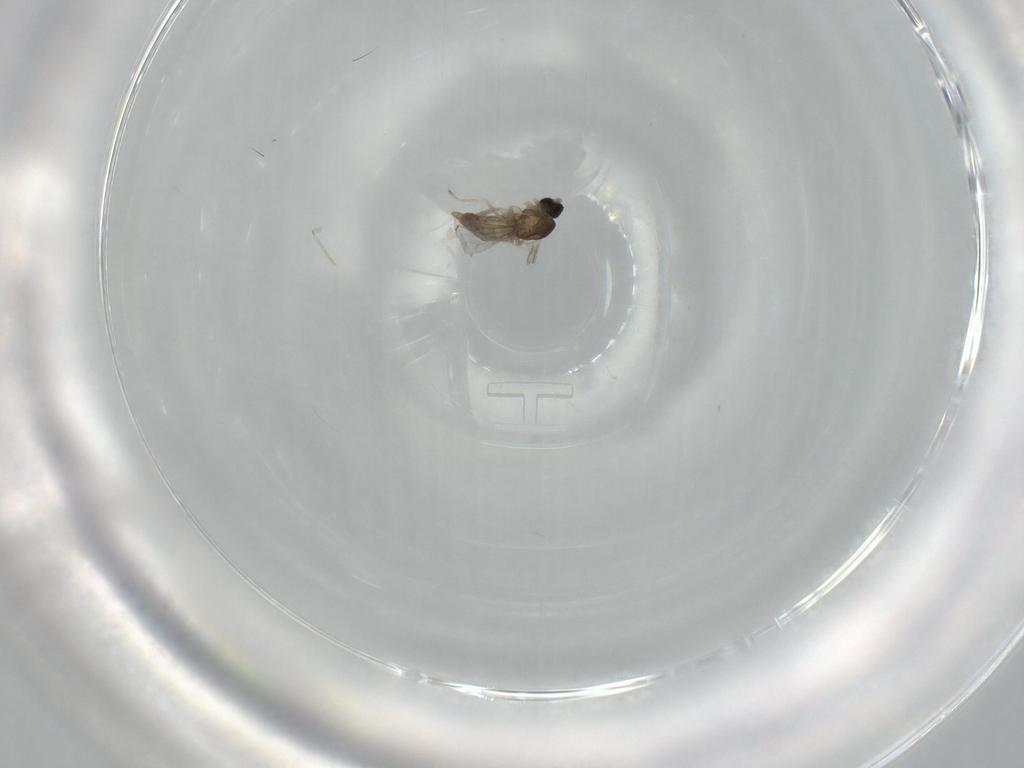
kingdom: Animalia
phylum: Arthropoda
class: Insecta
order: Diptera
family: Cecidomyiidae
